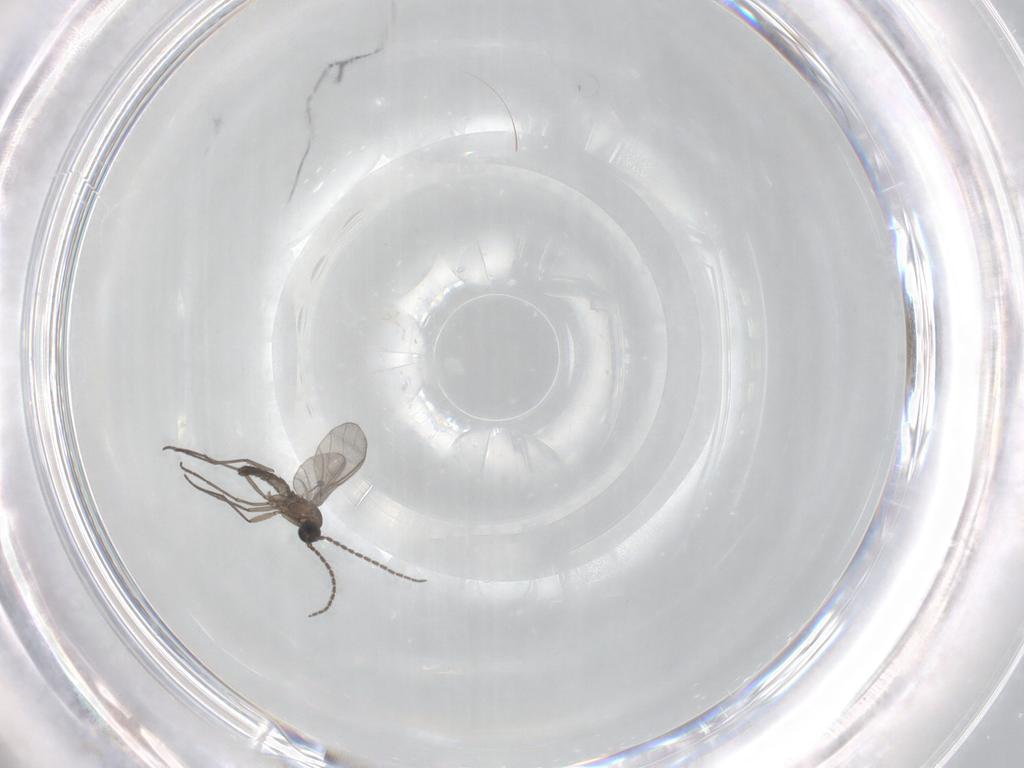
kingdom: Animalia
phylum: Arthropoda
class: Insecta
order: Diptera
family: Sciaridae
